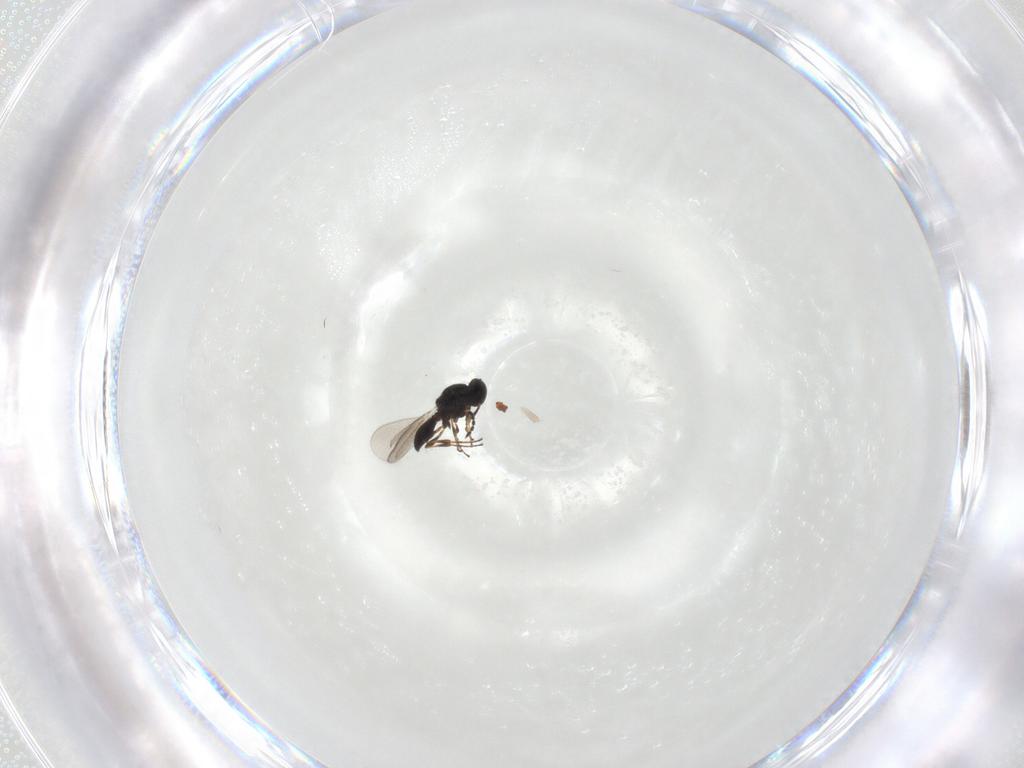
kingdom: Animalia
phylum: Arthropoda
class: Insecta
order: Hymenoptera
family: Platygastridae
